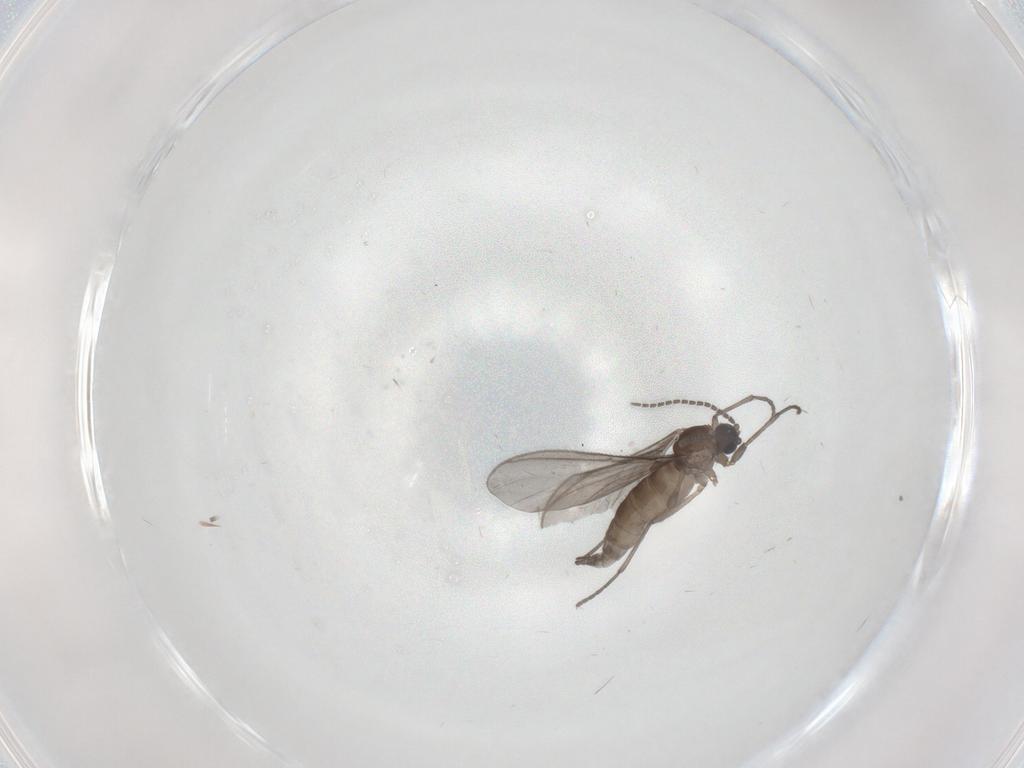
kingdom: Animalia
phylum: Arthropoda
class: Insecta
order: Diptera
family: Sciaridae
